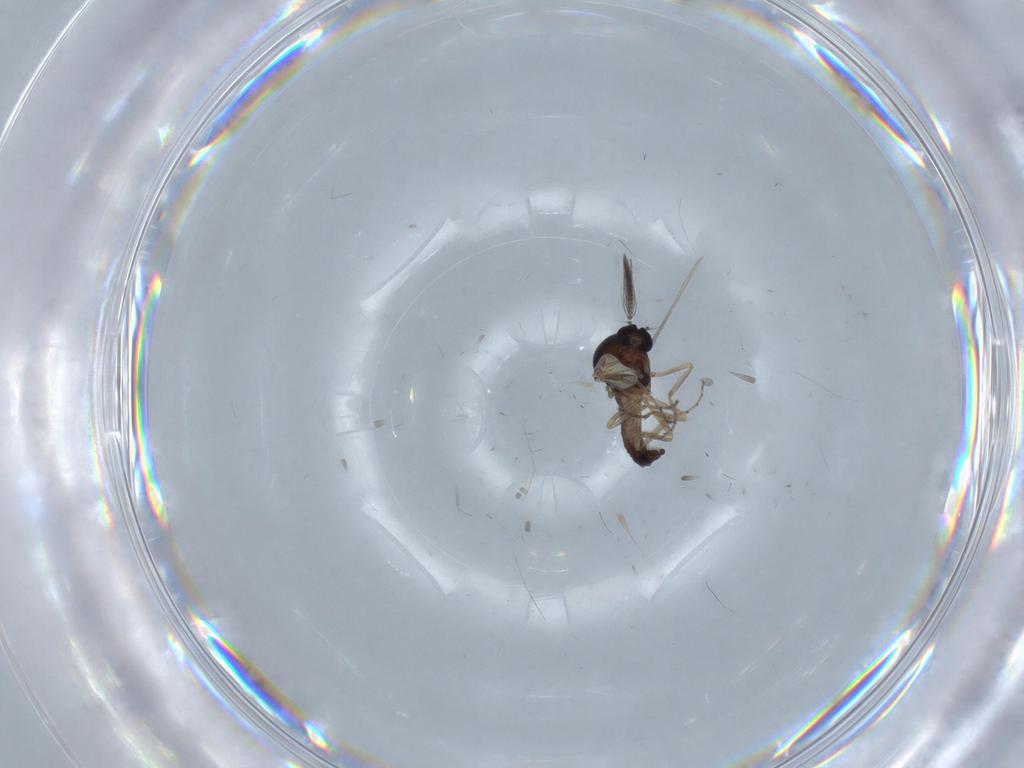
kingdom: Animalia
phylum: Arthropoda
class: Insecta
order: Diptera
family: Ceratopogonidae
